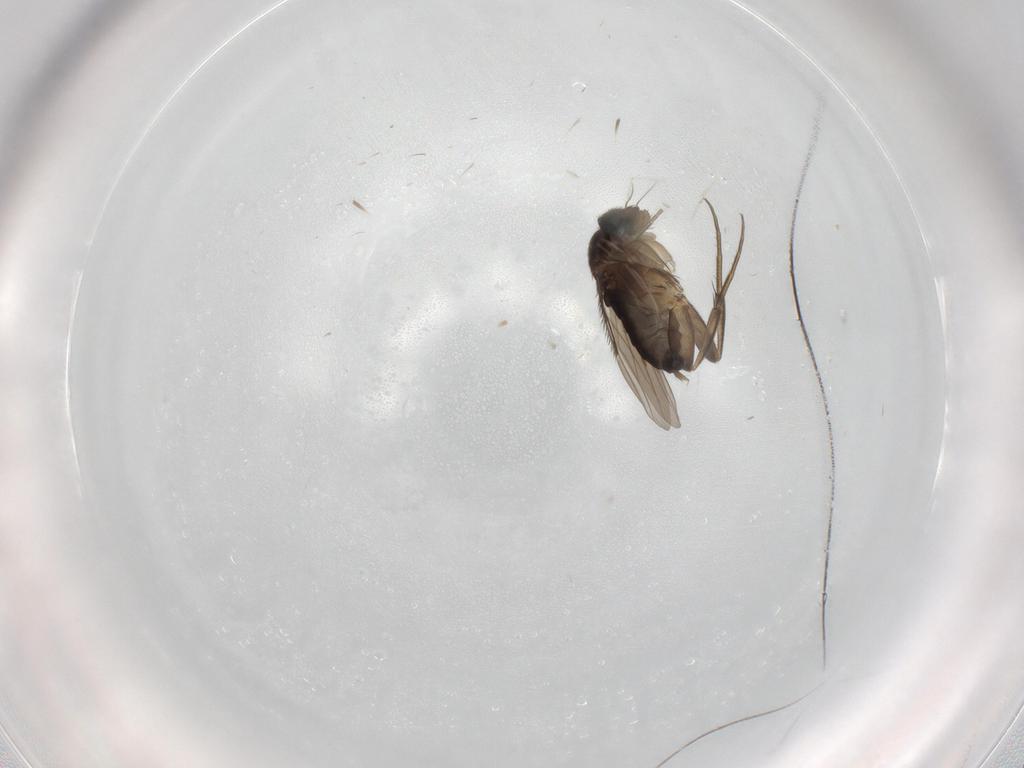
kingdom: Animalia
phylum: Arthropoda
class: Insecta
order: Diptera
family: Phoridae
